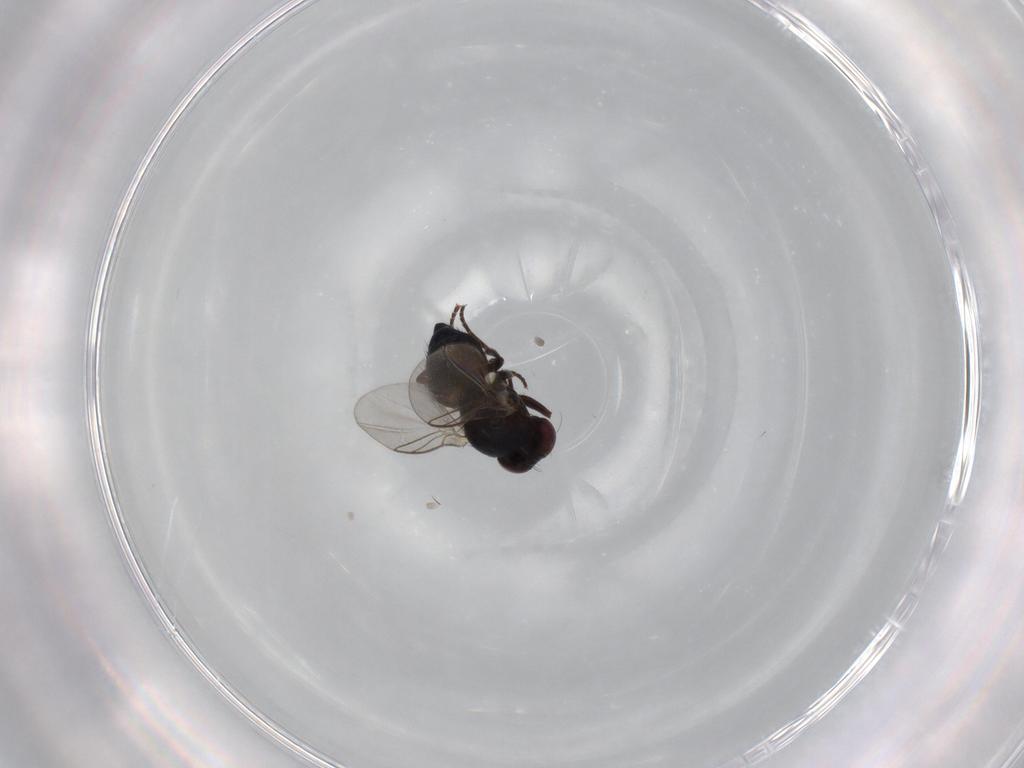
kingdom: Animalia
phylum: Arthropoda
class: Insecta
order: Diptera
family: Agromyzidae
